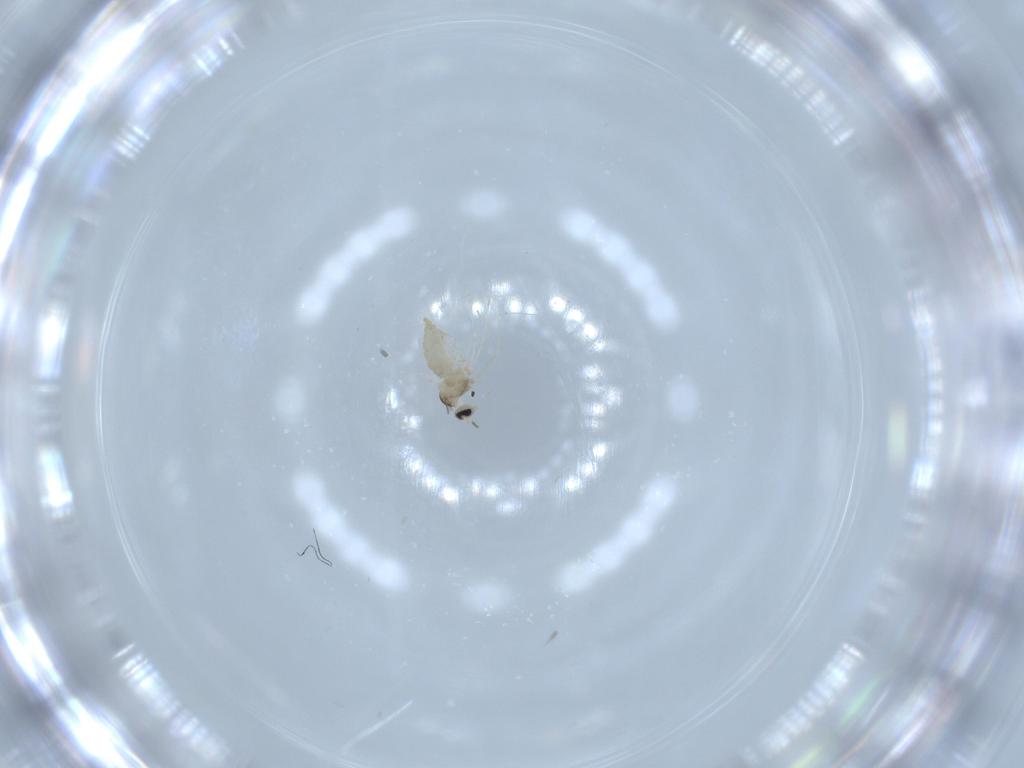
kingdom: Animalia
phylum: Arthropoda
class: Insecta
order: Diptera
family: Cecidomyiidae
